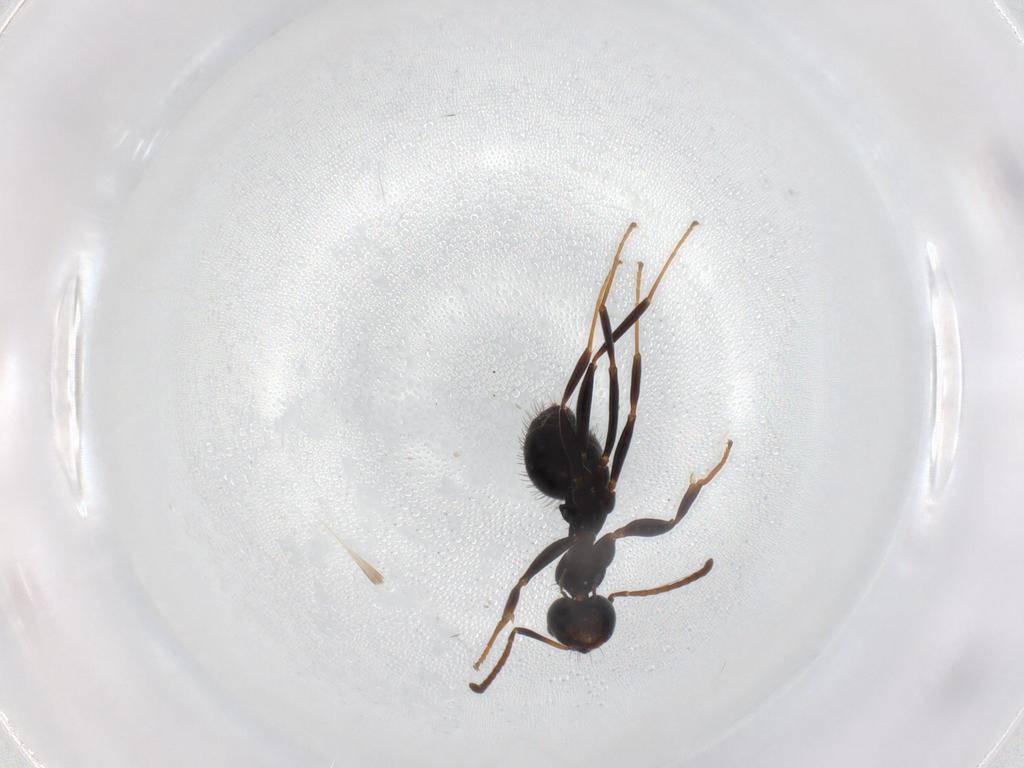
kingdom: Animalia
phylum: Arthropoda
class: Insecta
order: Hymenoptera
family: Formicidae
